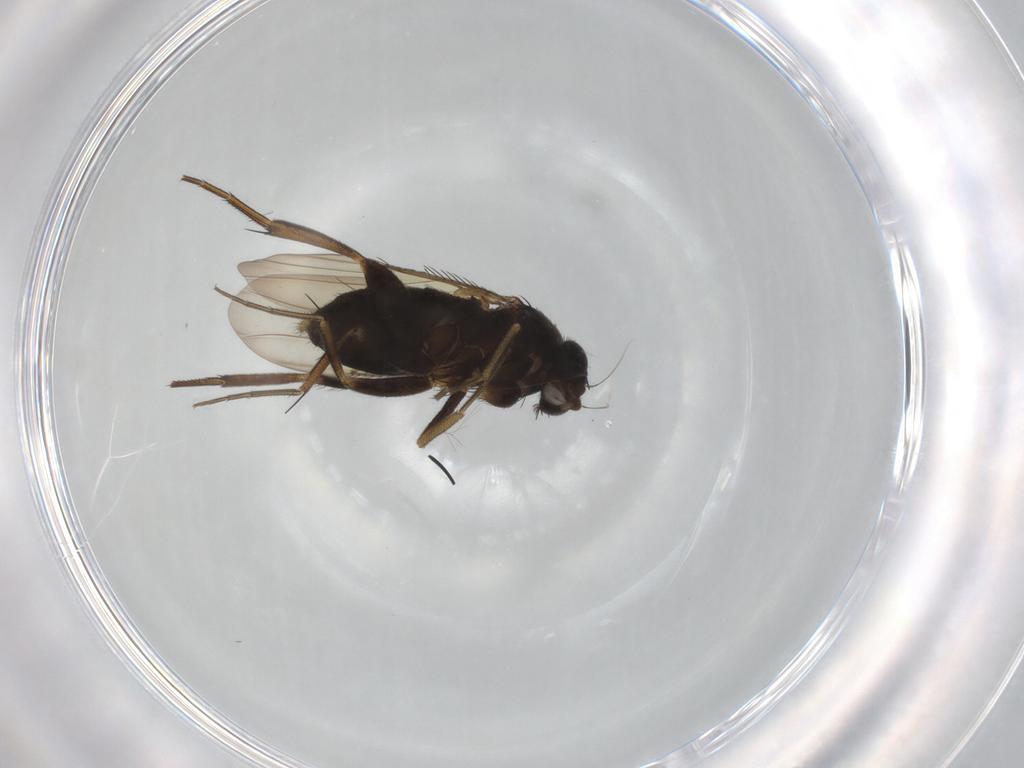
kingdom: Animalia
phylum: Arthropoda
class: Insecta
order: Diptera
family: Phoridae
